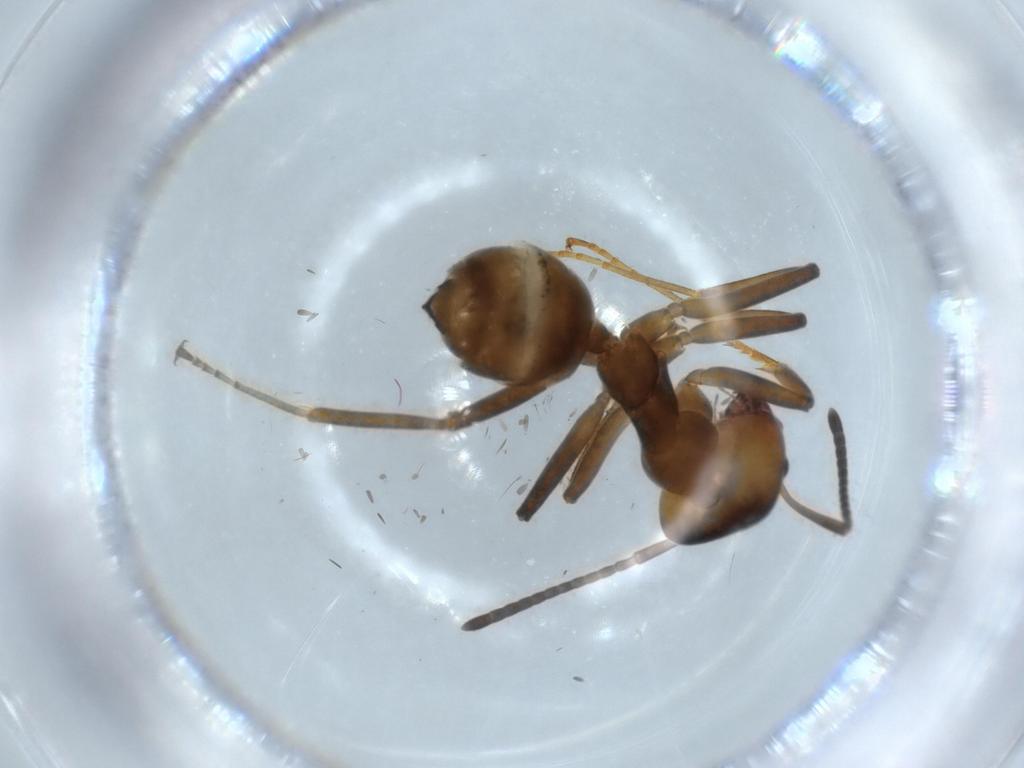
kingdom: Animalia
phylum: Arthropoda
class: Insecta
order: Hymenoptera
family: Formicidae
